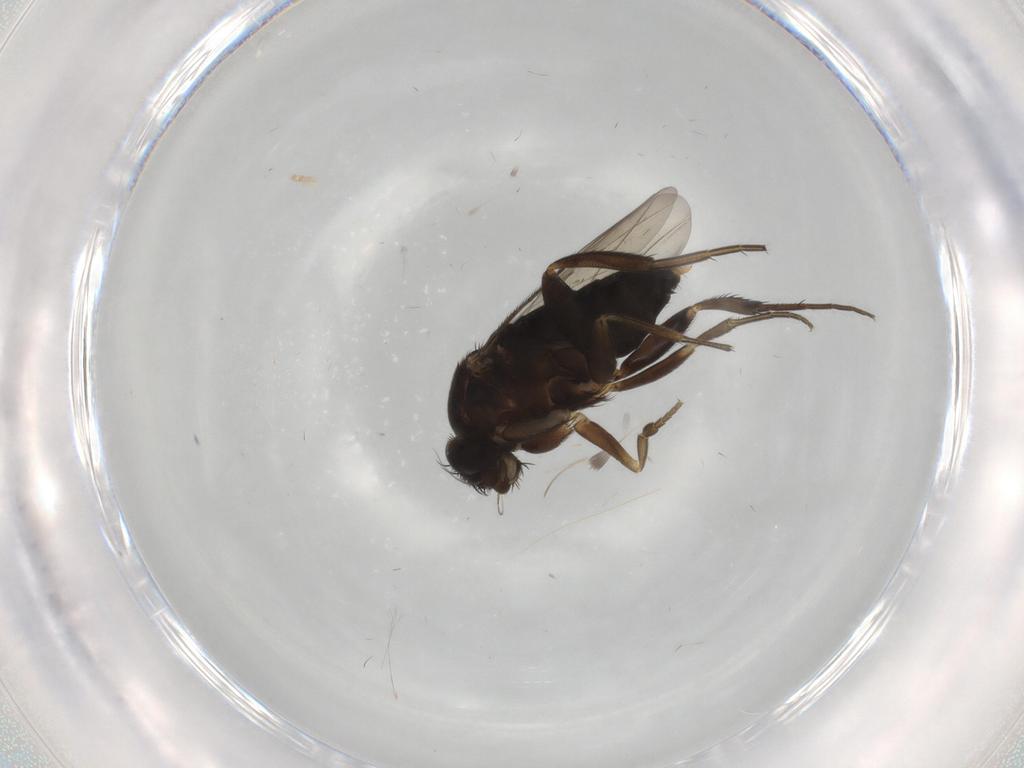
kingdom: Animalia
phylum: Arthropoda
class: Insecta
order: Diptera
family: Phoridae
